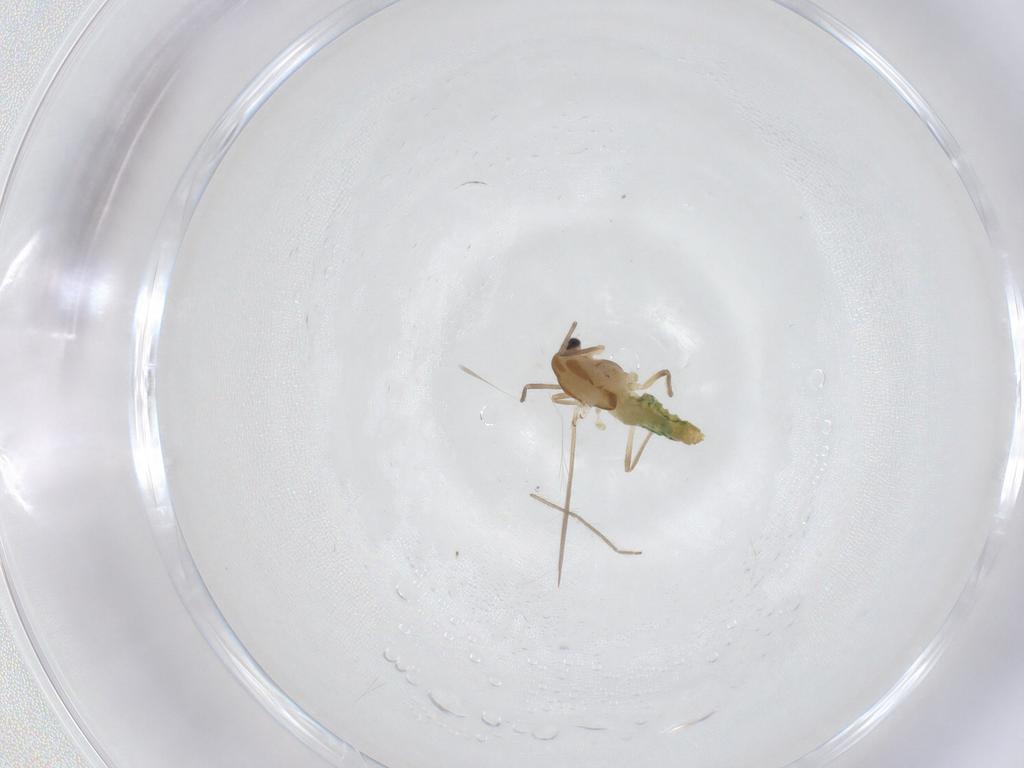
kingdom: Animalia
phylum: Arthropoda
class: Insecta
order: Diptera
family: Chironomidae
